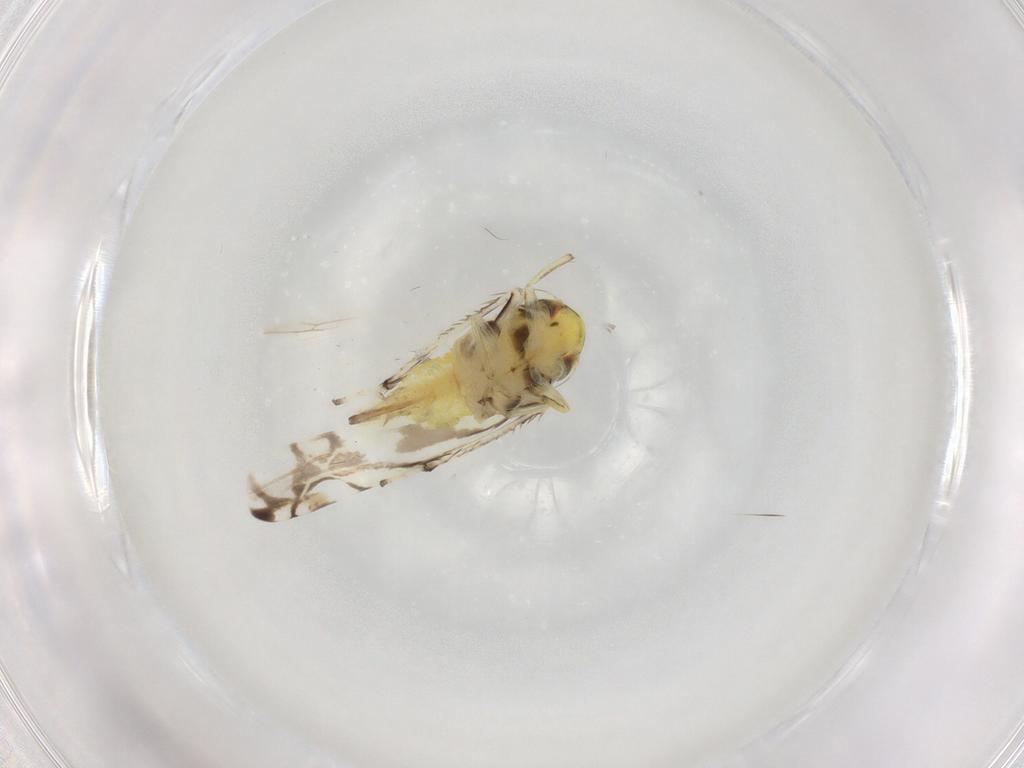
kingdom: Animalia
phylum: Arthropoda
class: Insecta
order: Hemiptera
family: Cicadellidae
